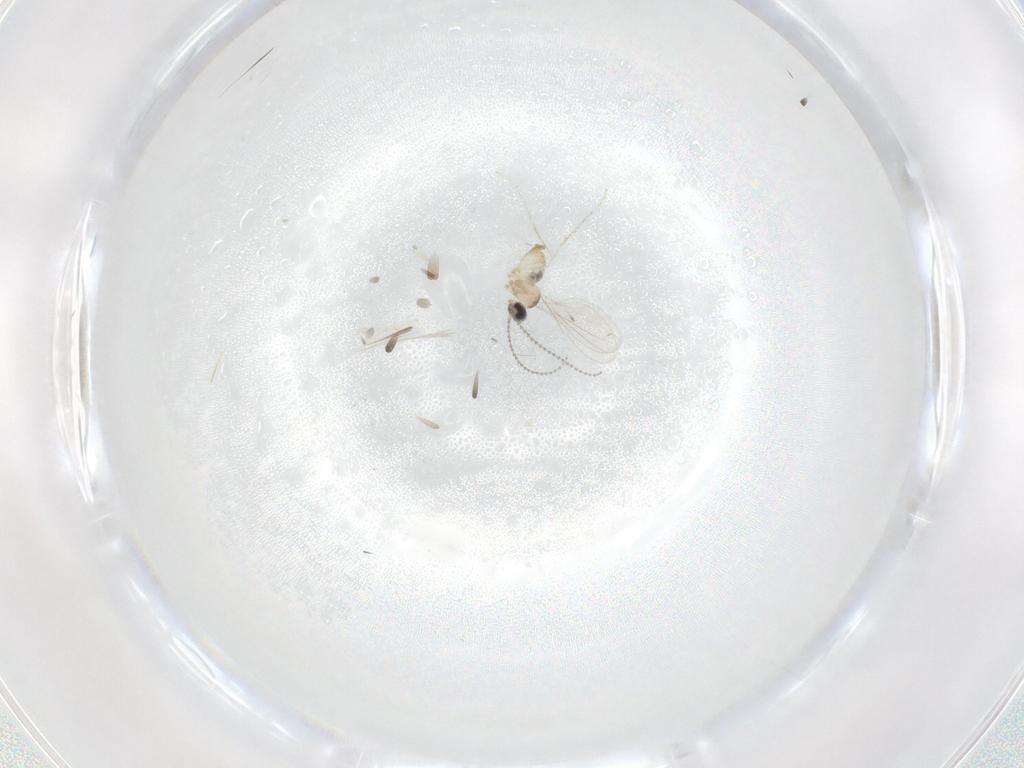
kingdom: Animalia
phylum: Arthropoda
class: Insecta
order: Diptera
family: Cecidomyiidae
